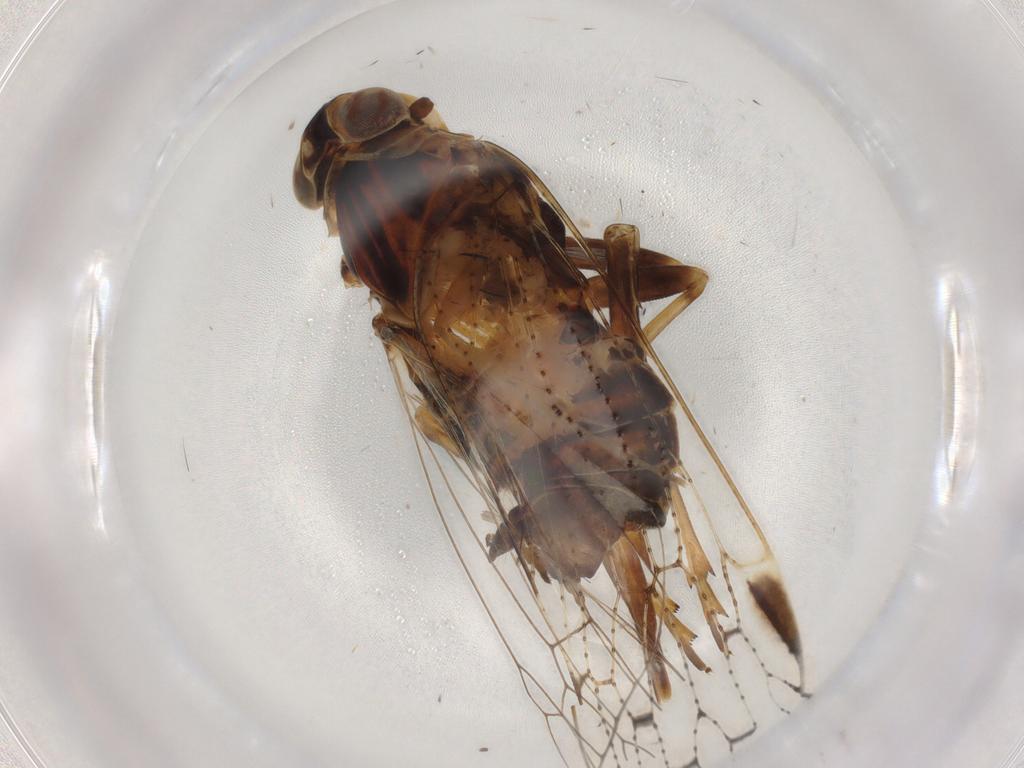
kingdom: Animalia
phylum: Arthropoda
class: Insecta
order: Hemiptera
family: Cixiidae
